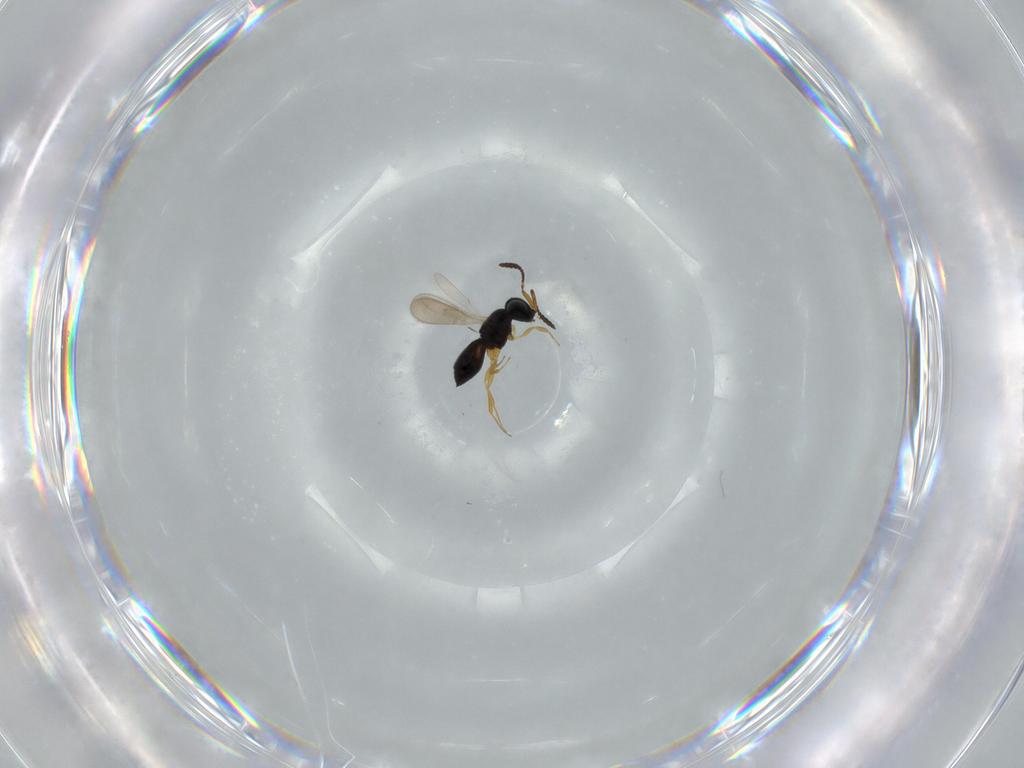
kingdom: Animalia
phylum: Arthropoda
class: Insecta
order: Hymenoptera
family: Scelionidae
